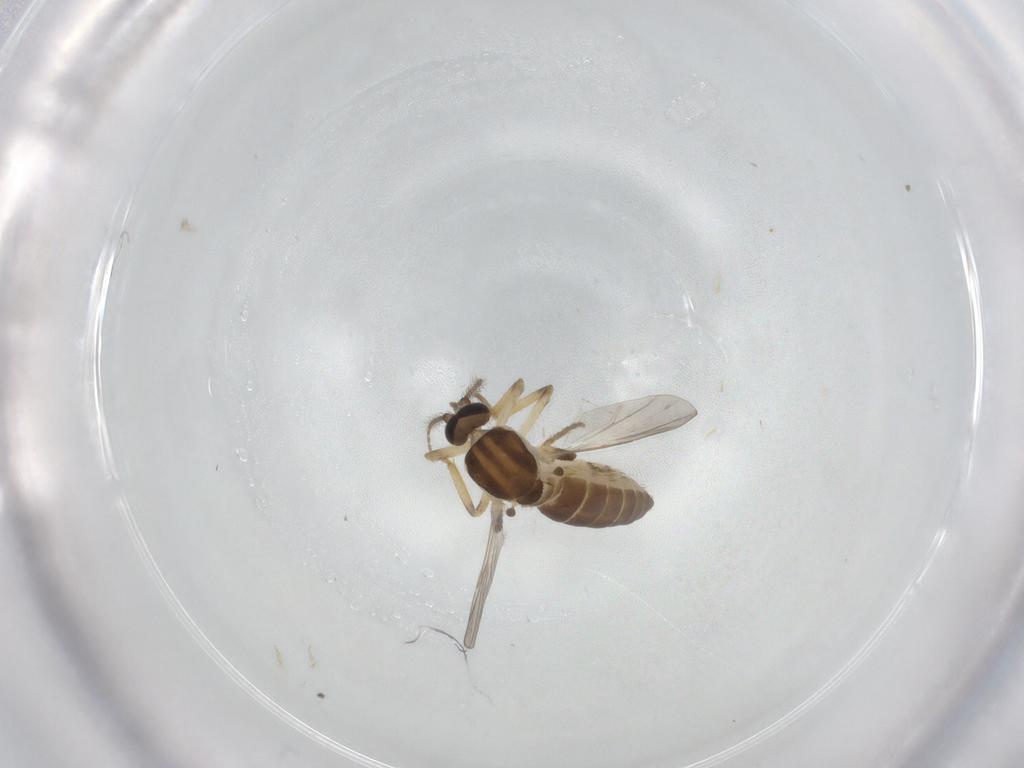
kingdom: Animalia
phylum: Arthropoda
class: Insecta
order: Diptera
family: Ceratopogonidae
